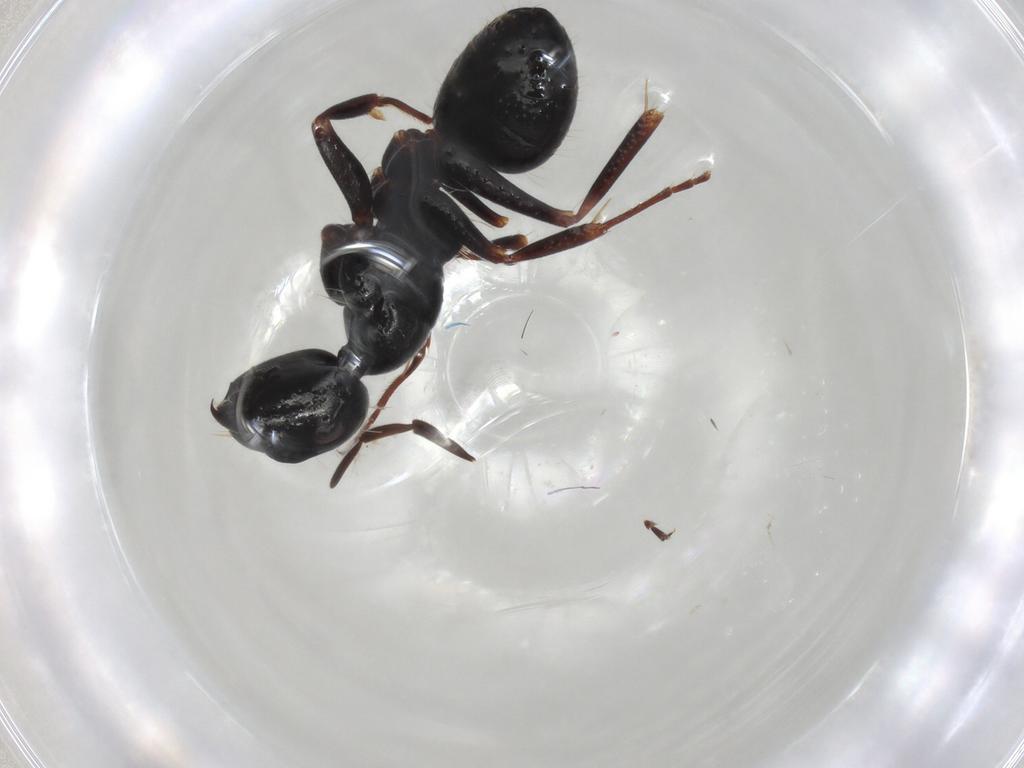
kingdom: Animalia
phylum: Arthropoda
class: Insecta
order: Hymenoptera
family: Formicidae
